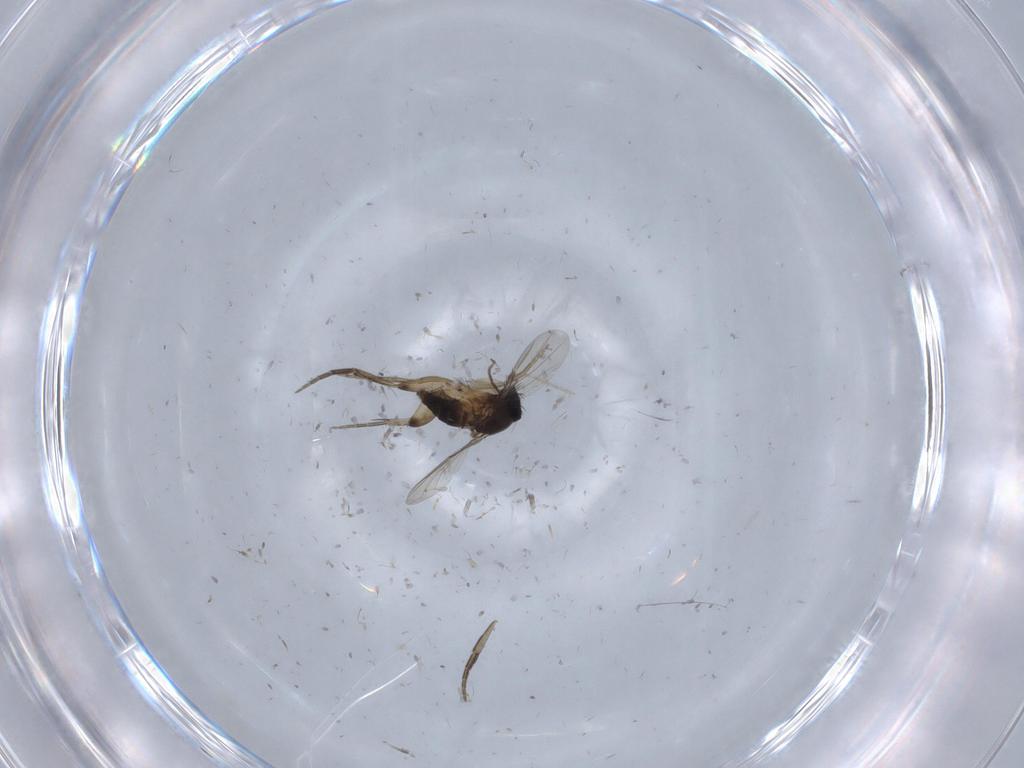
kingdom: Animalia
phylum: Arthropoda
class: Insecta
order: Diptera
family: Phoridae
